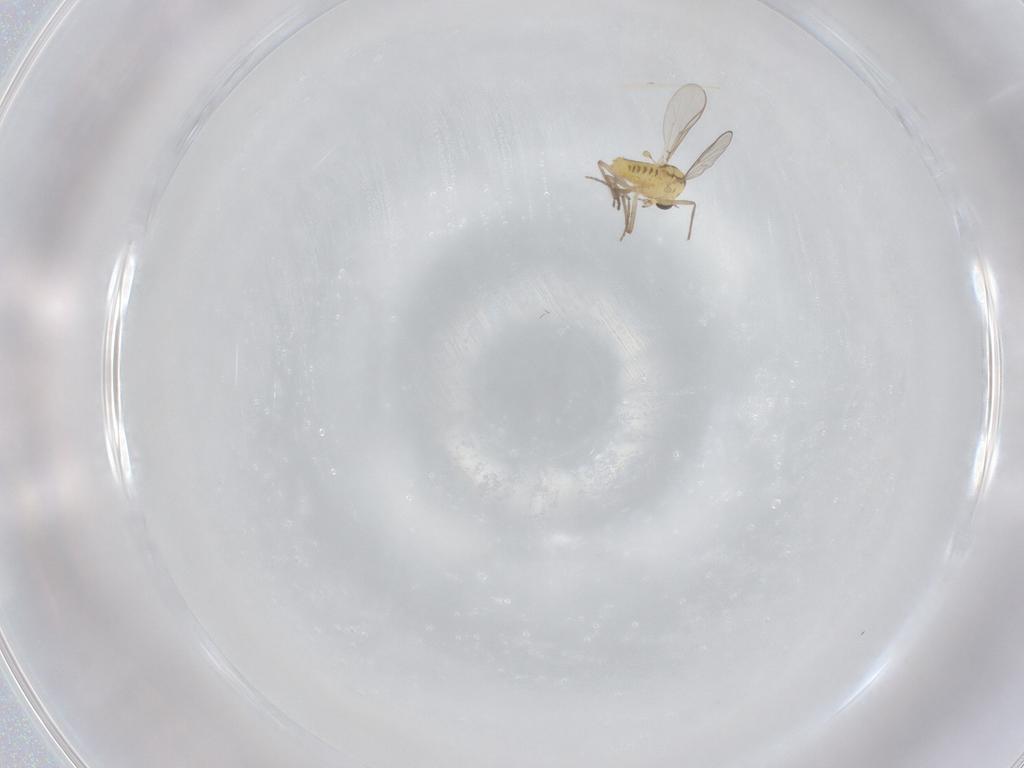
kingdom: Animalia
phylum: Arthropoda
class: Insecta
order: Diptera
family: Chironomidae
